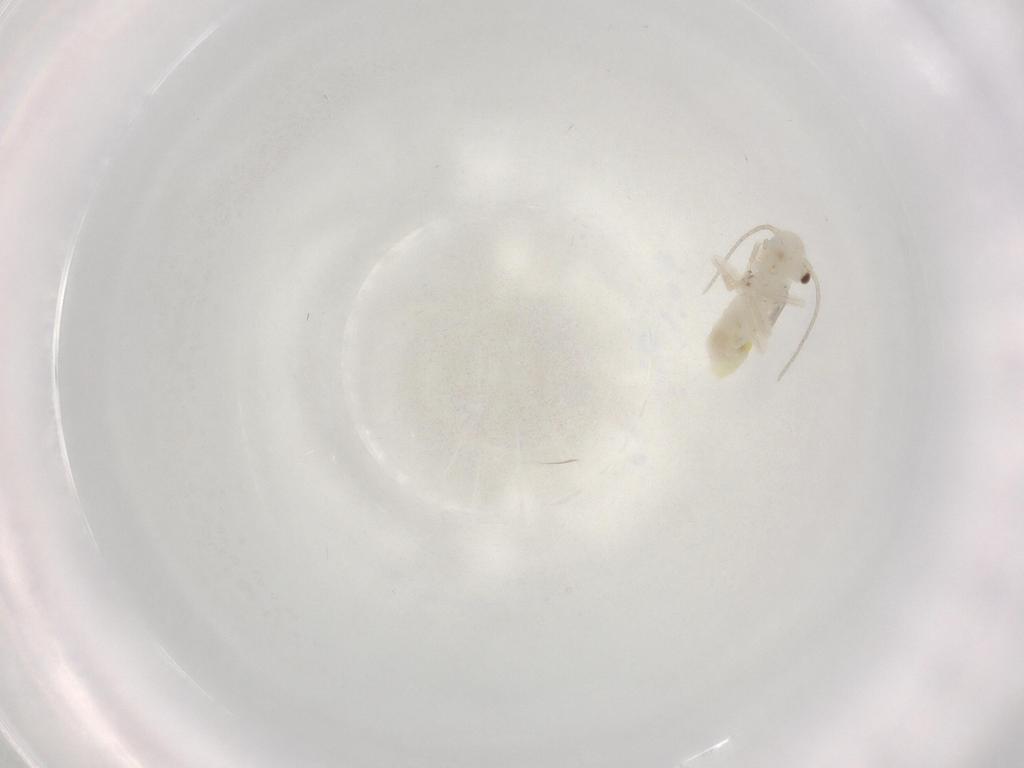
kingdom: Animalia
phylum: Arthropoda
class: Insecta
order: Psocodea
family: Caeciliusidae
